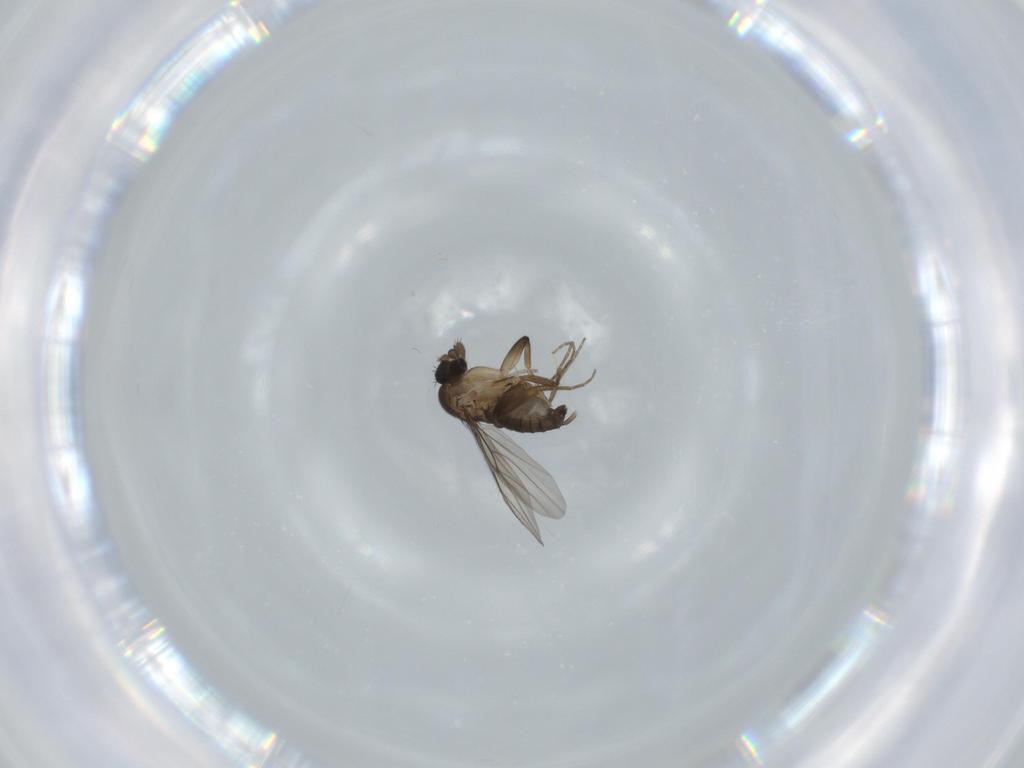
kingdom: Animalia
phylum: Arthropoda
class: Insecta
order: Diptera
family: Phoridae
